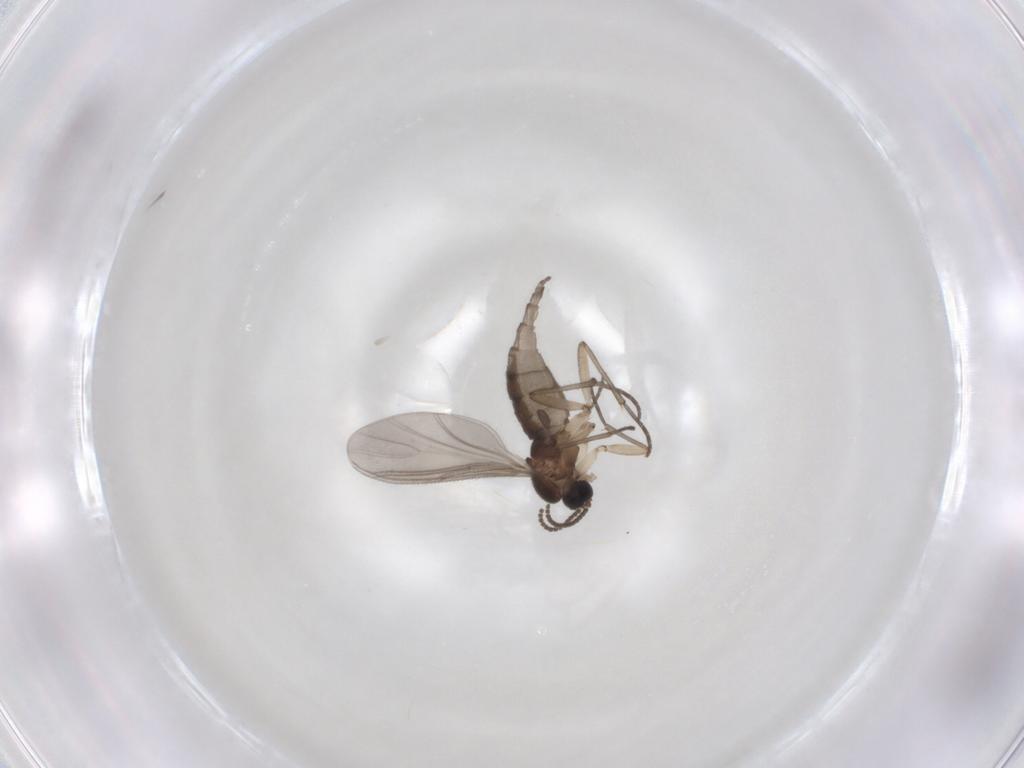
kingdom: Animalia
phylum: Arthropoda
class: Insecta
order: Diptera
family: Sciaridae
